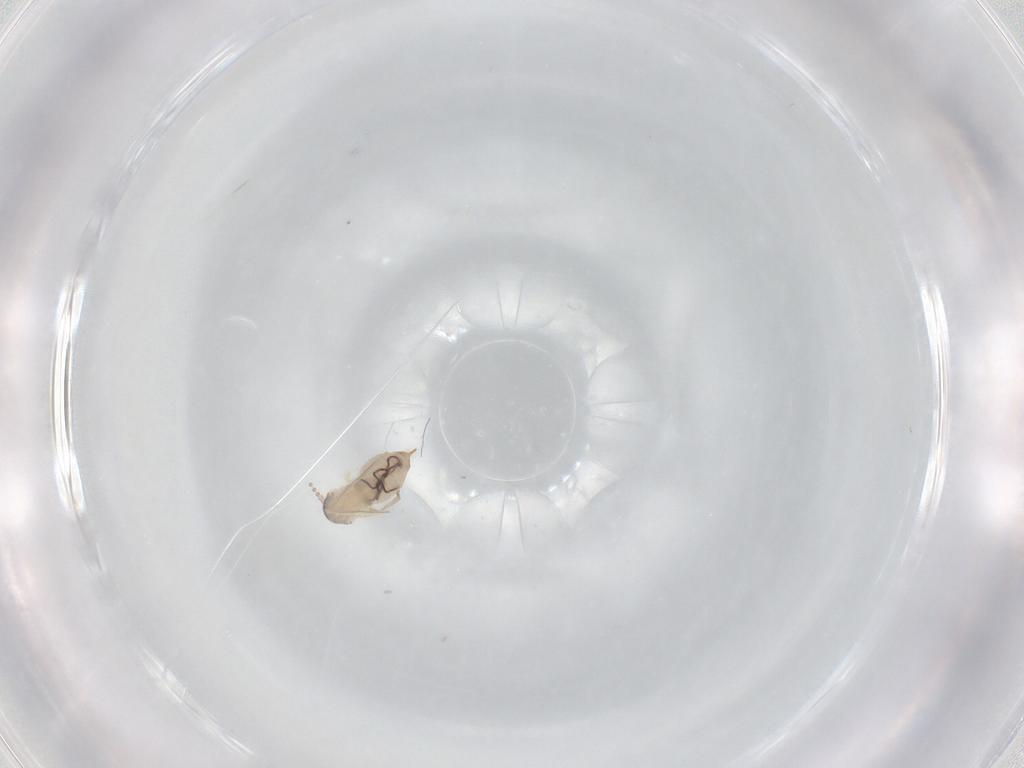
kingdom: Animalia
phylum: Arthropoda
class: Insecta
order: Diptera
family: Psychodidae
